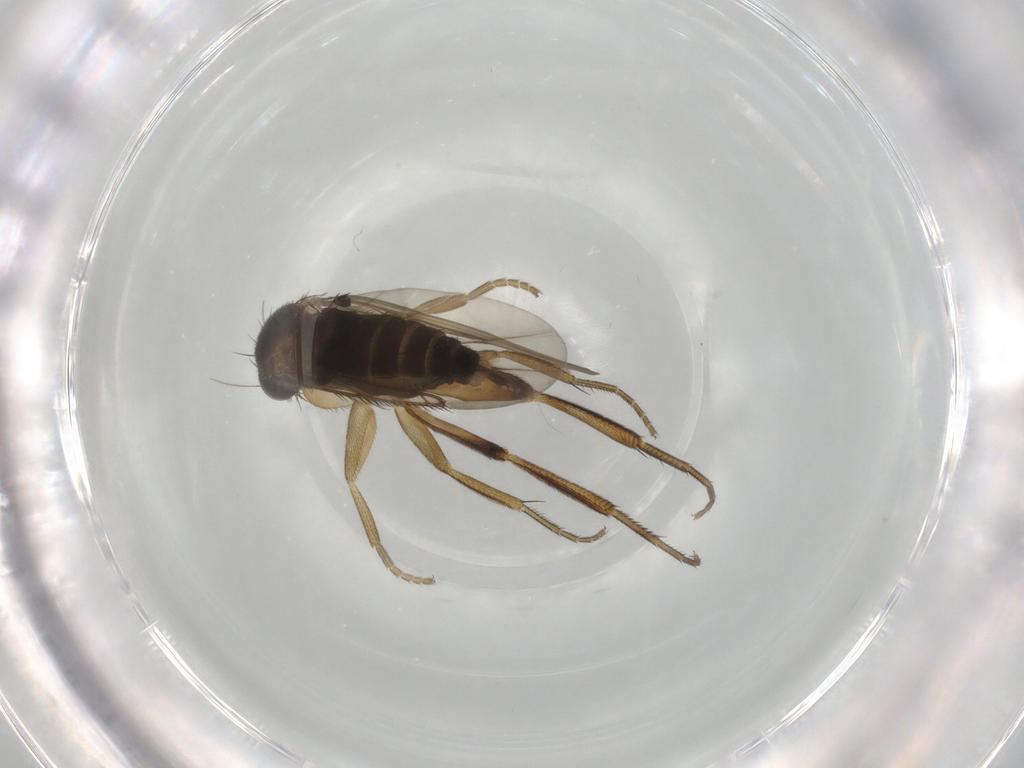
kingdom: Animalia
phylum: Arthropoda
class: Insecta
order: Diptera
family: Phoridae
